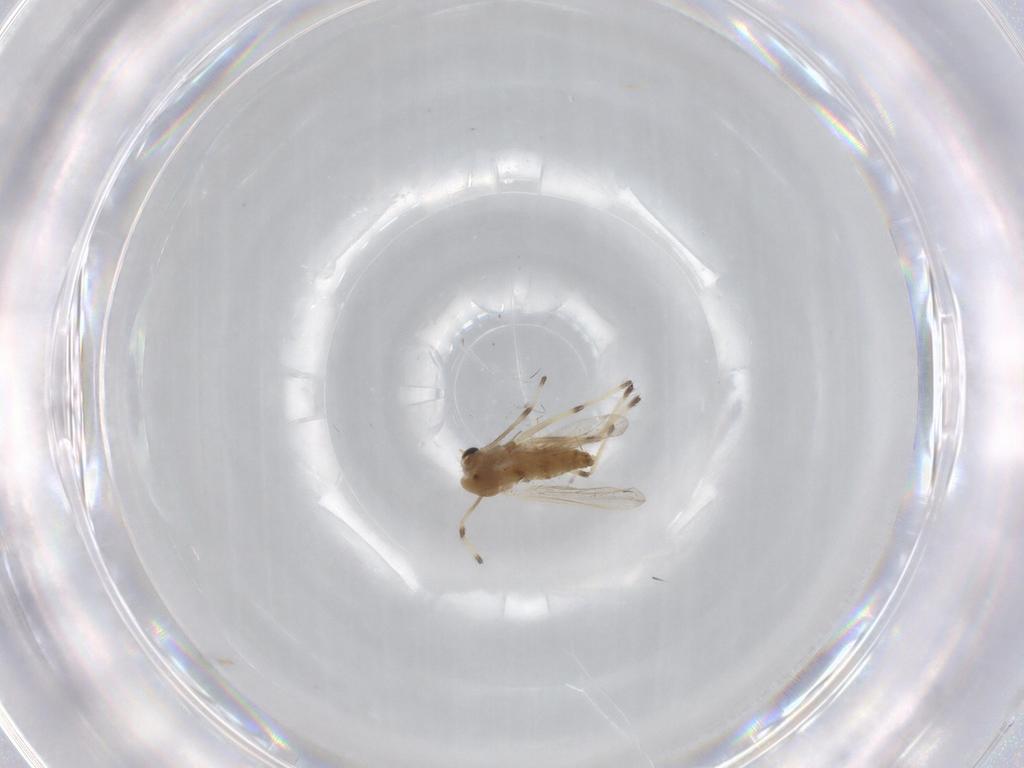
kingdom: Animalia
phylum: Arthropoda
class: Insecta
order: Diptera
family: Chironomidae
